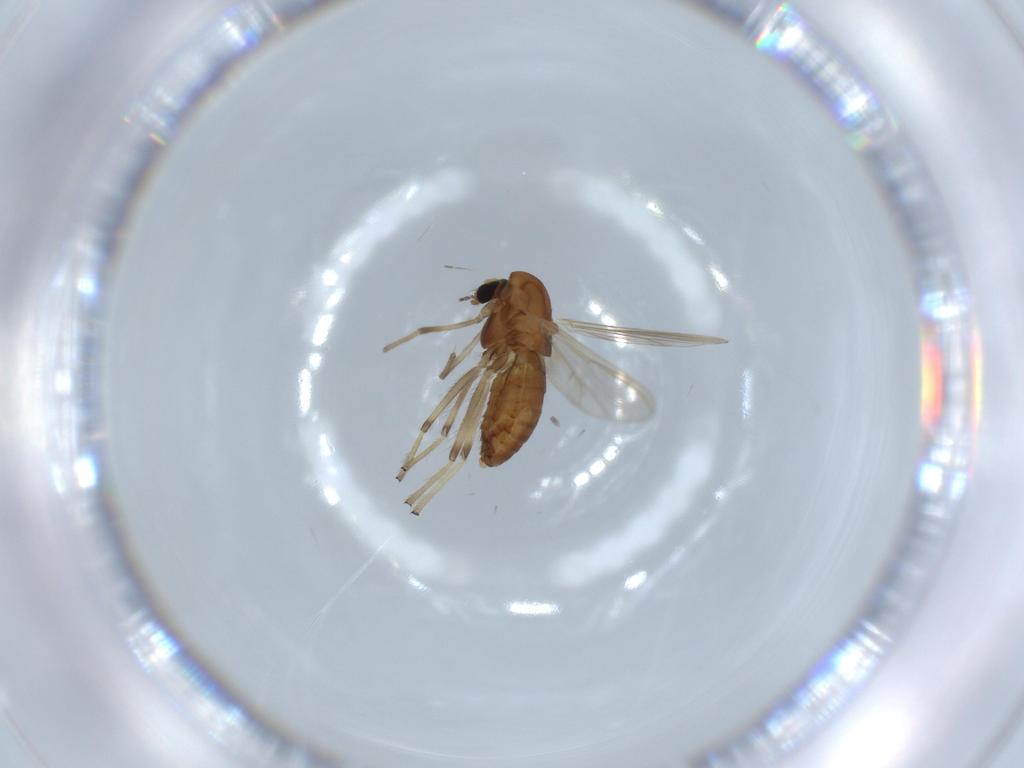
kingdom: Animalia
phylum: Arthropoda
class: Insecta
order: Diptera
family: Chironomidae
